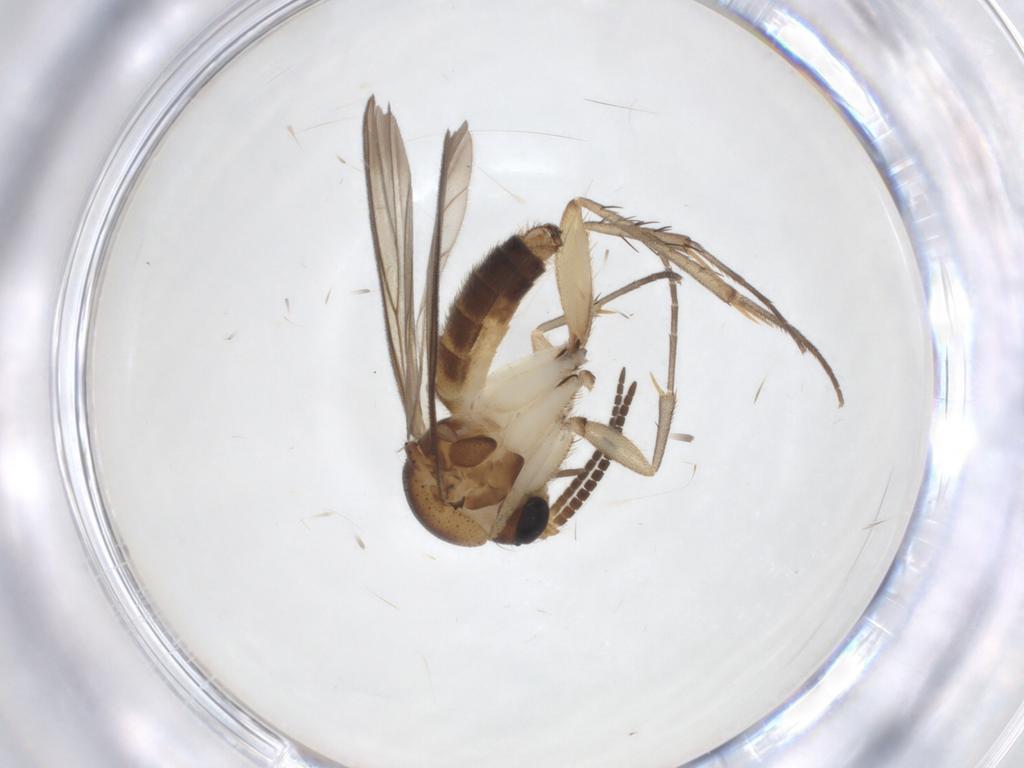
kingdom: Animalia
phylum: Arthropoda
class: Insecta
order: Diptera
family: Mycetophilidae
